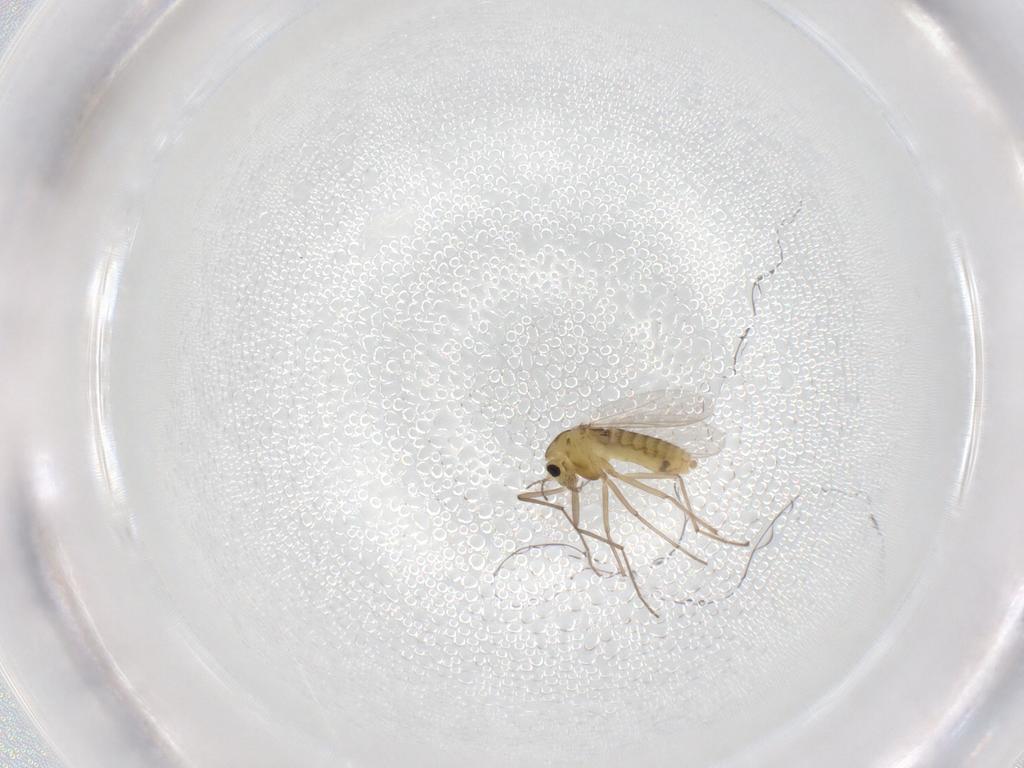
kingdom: Animalia
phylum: Arthropoda
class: Insecta
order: Diptera
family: Chironomidae
